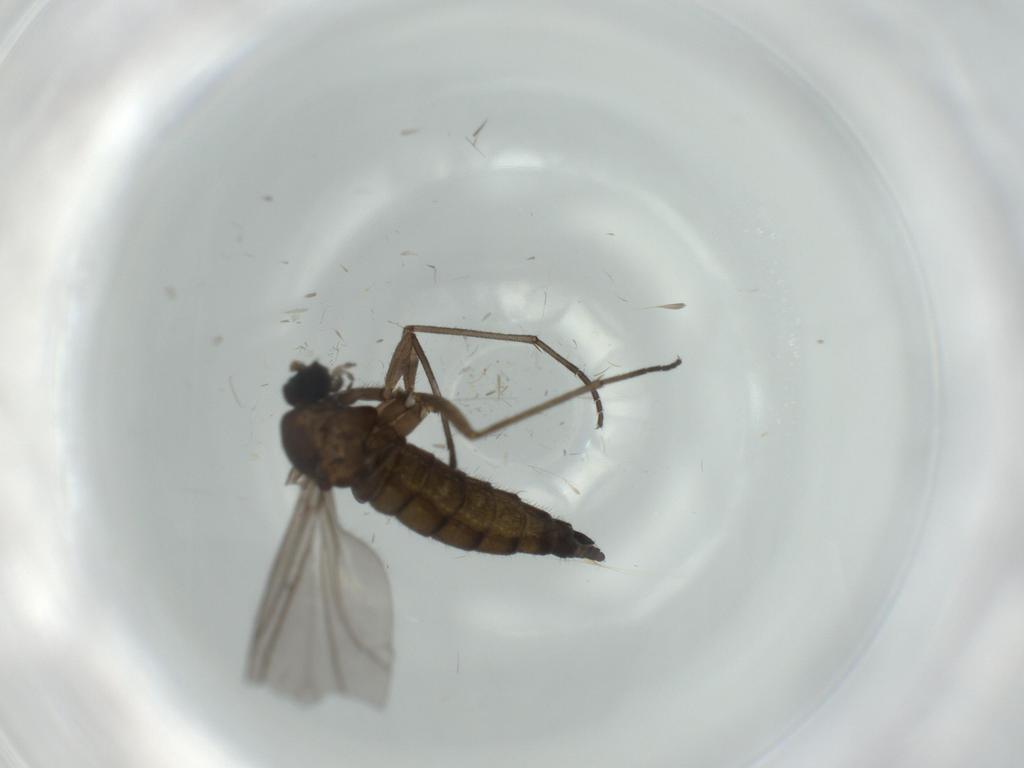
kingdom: Animalia
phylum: Arthropoda
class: Insecta
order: Diptera
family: Sciaridae
